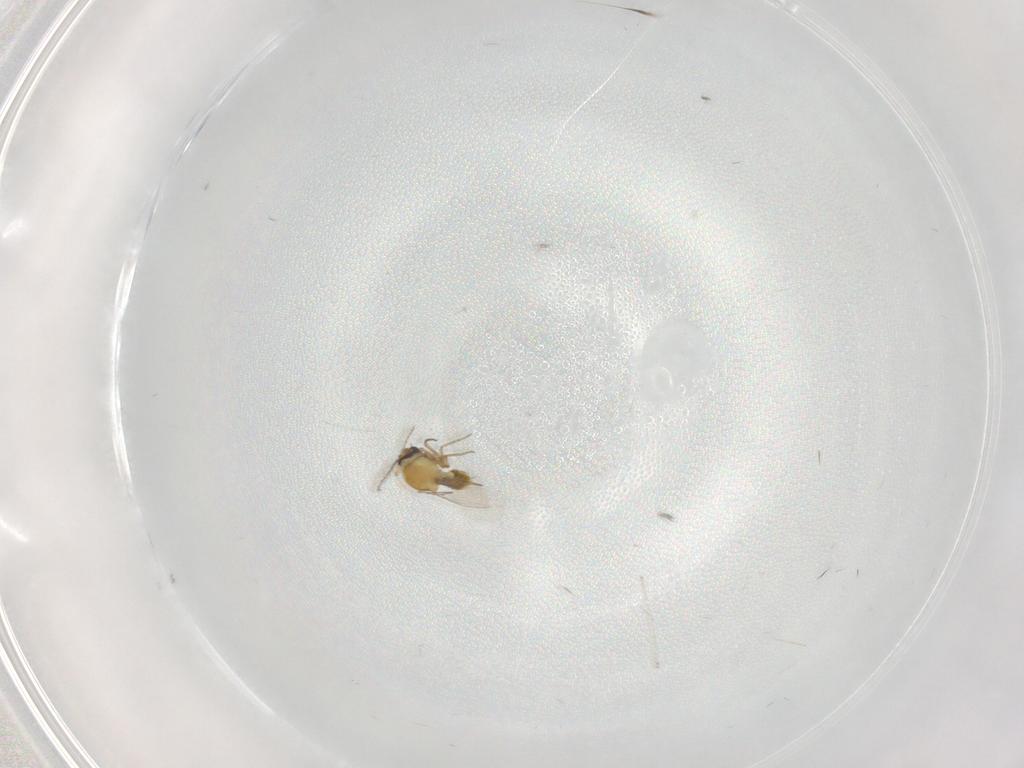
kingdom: Animalia
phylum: Arthropoda
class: Insecta
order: Diptera
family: Ceratopogonidae
